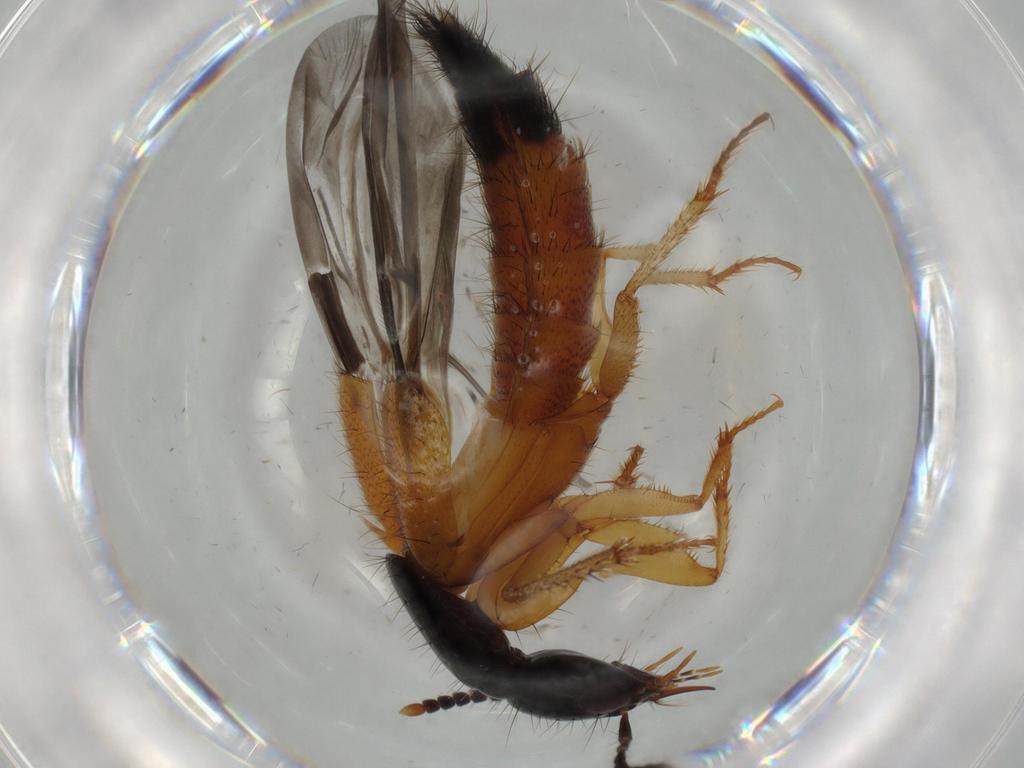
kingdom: Animalia
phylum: Arthropoda
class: Insecta
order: Coleoptera
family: Staphylinidae
